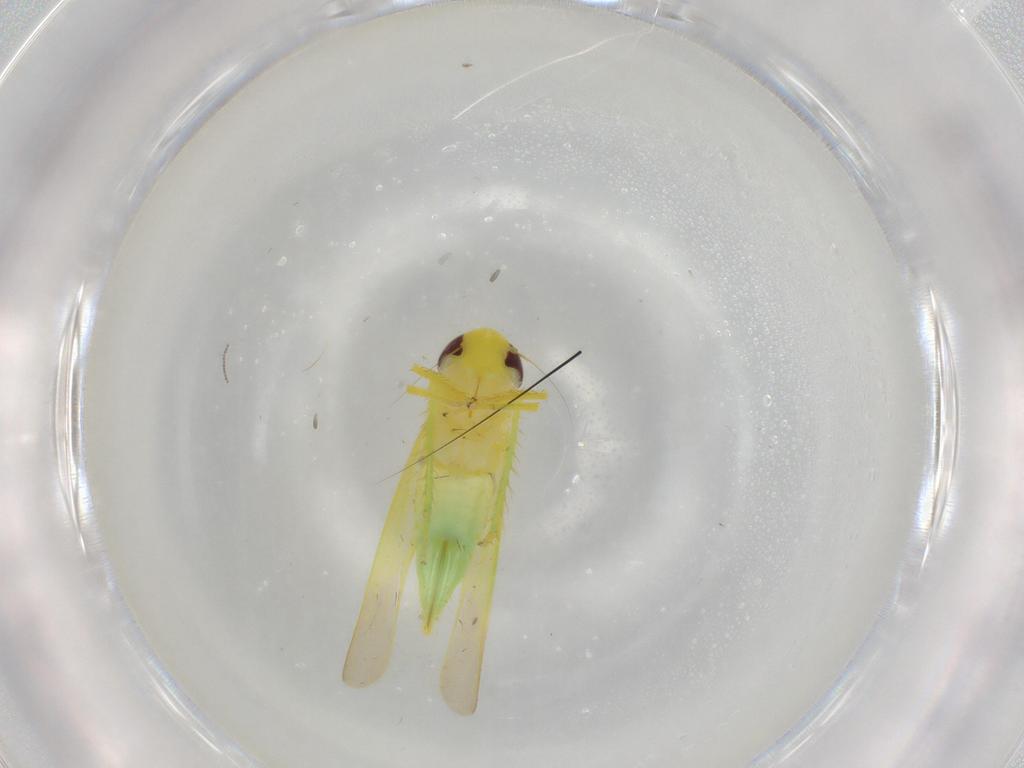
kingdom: Animalia
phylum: Arthropoda
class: Insecta
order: Hemiptera
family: Cicadellidae
